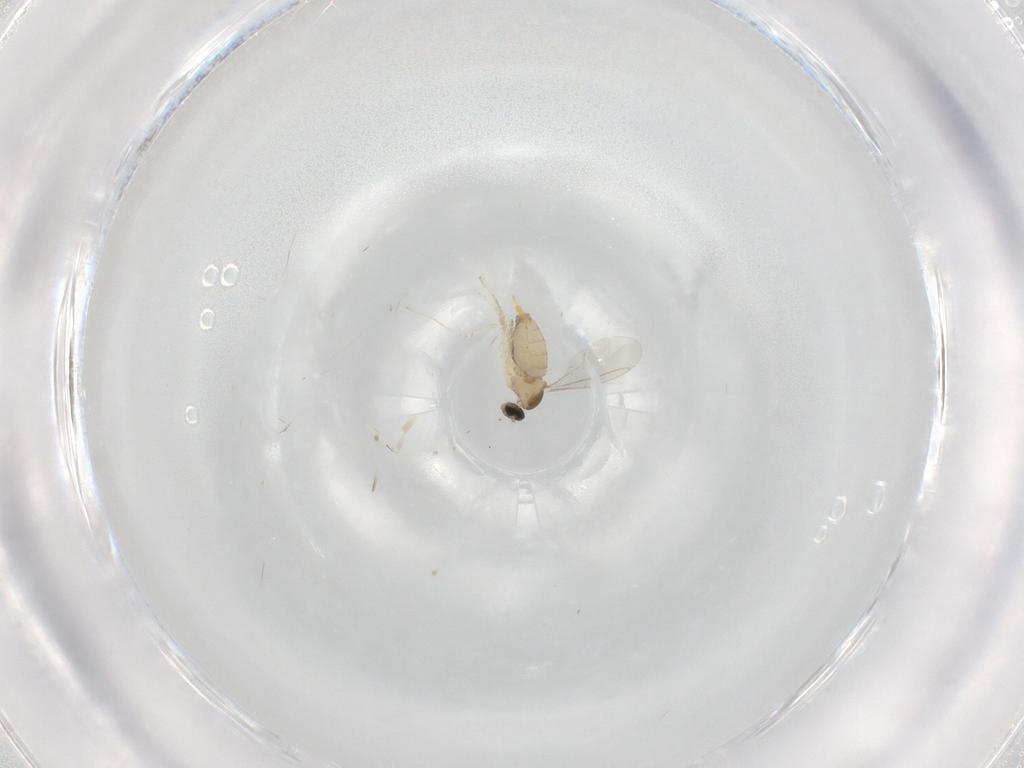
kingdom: Animalia
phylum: Arthropoda
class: Insecta
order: Diptera
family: Cecidomyiidae
